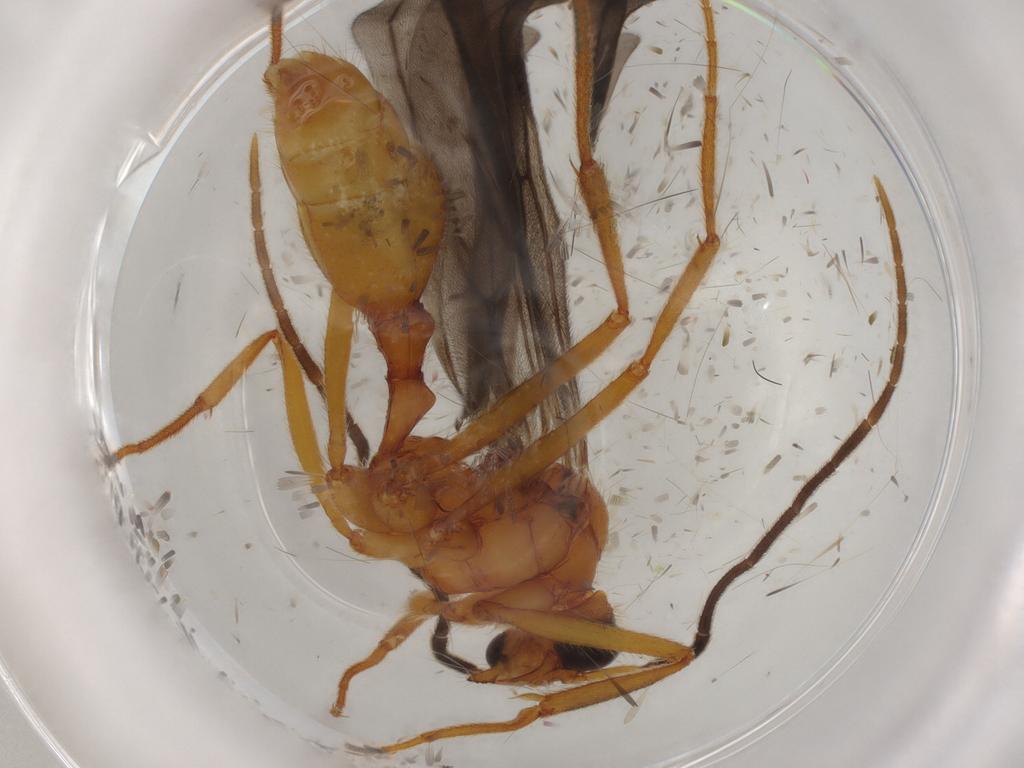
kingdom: Animalia
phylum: Arthropoda
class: Insecta
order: Hymenoptera
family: Braconidae
